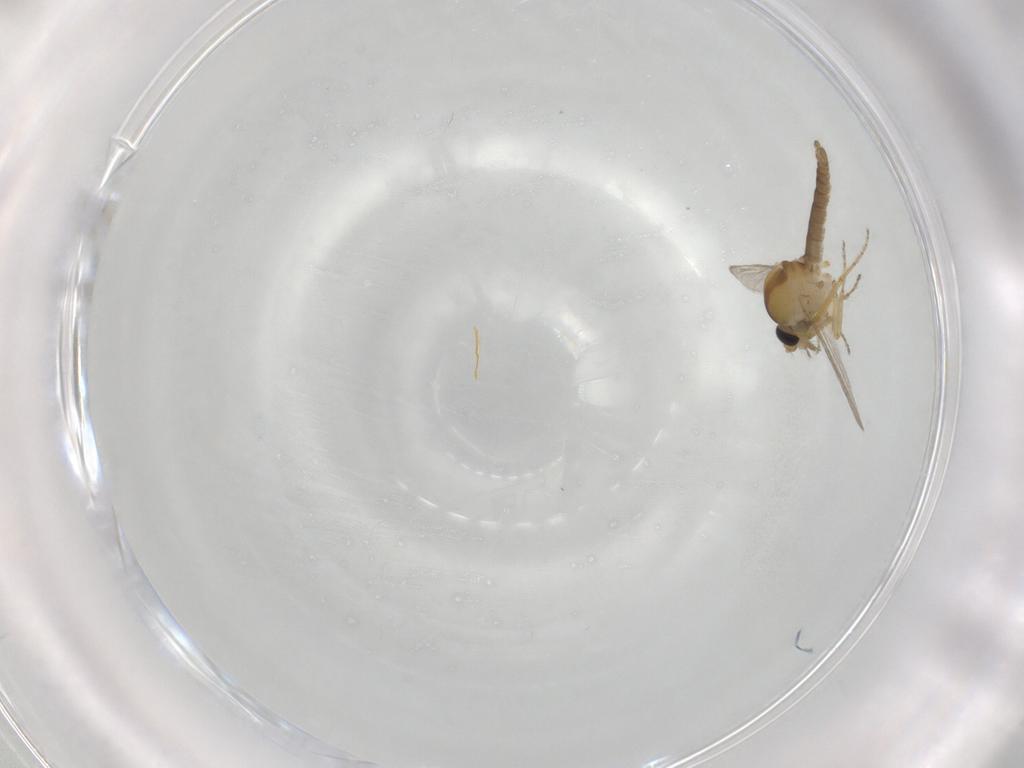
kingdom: Animalia
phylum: Arthropoda
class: Insecta
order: Diptera
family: Ceratopogonidae
